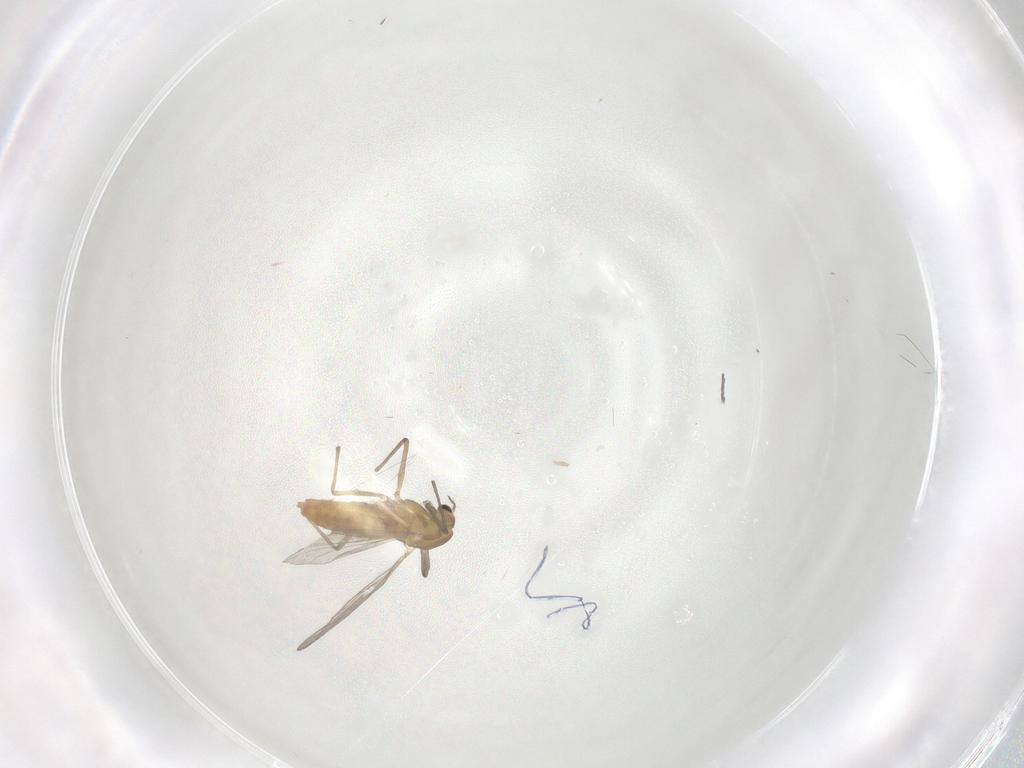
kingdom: Animalia
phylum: Arthropoda
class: Insecta
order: Diptera
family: Chironomidae
